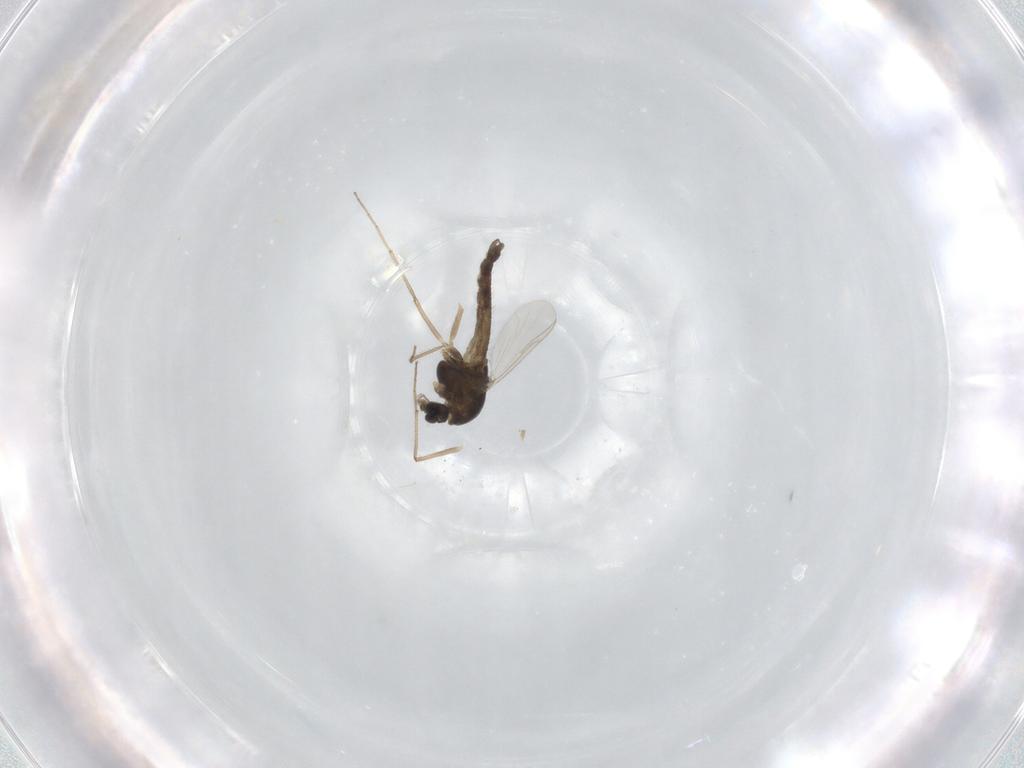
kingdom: Animalia
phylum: Arthropoda
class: Insecta
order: Diptera
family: Chironomidae
